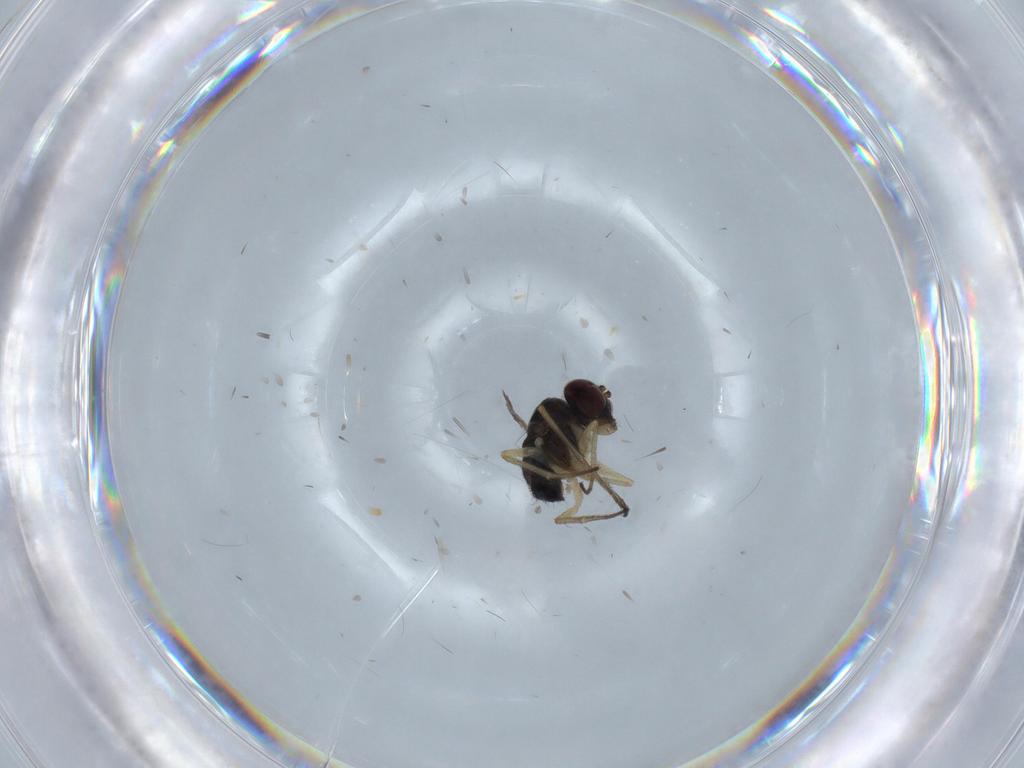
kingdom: Animalia
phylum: Arthropoda
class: Insecta
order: Diptera
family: Dolichopodidae
